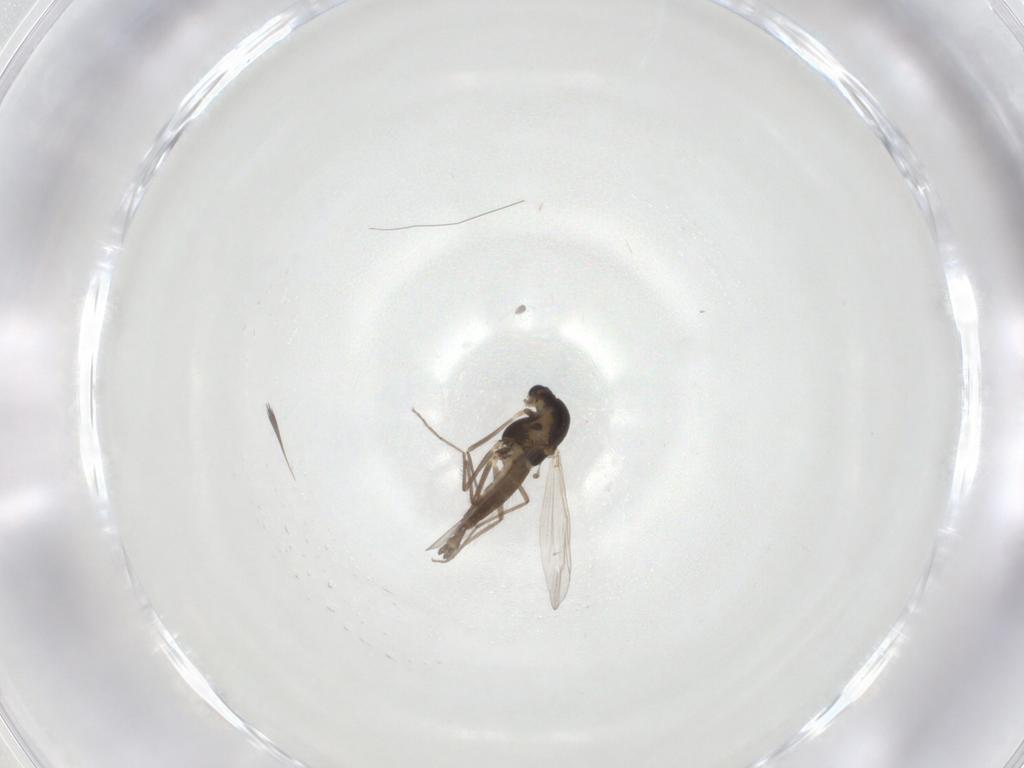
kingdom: Animalia
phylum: Arthropoda
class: Insecta
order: Diptera
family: Chironomidae
